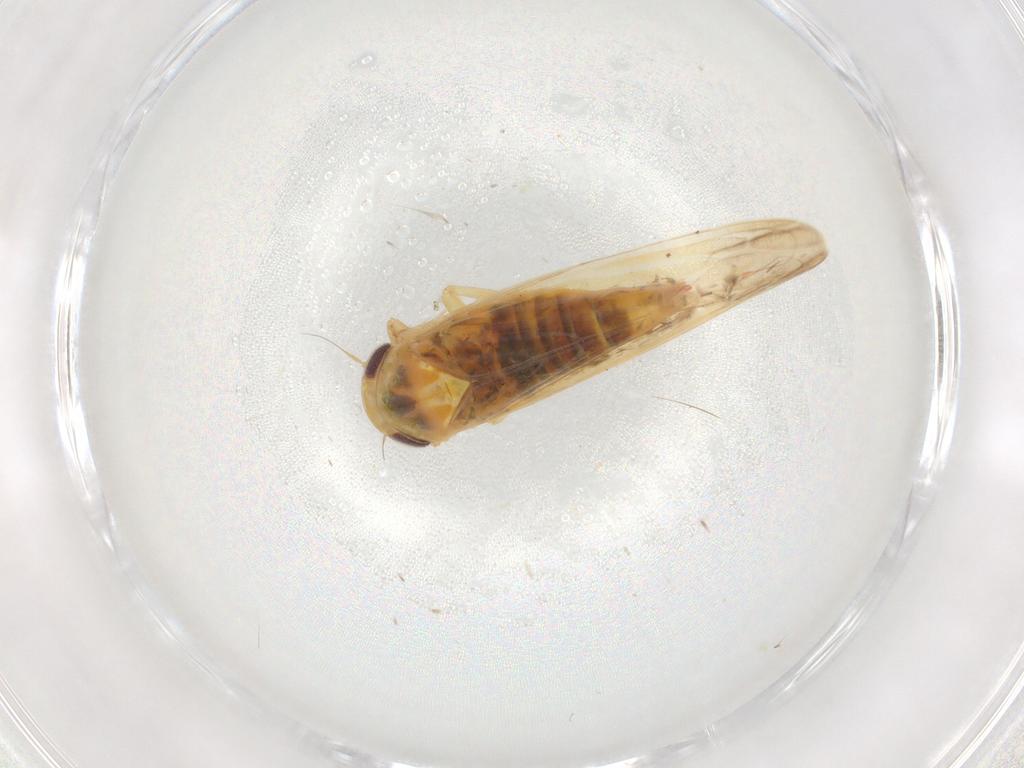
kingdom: Animalia
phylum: Arthropoda
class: Insecta
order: Hemiptera
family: Cicadellidae
